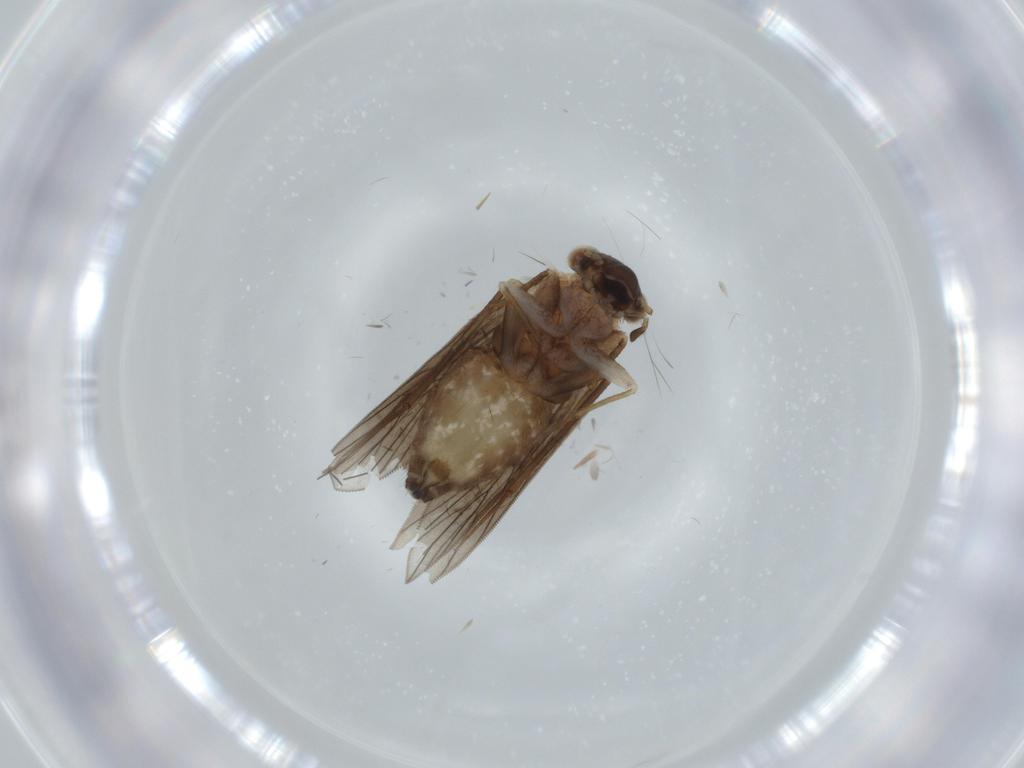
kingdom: Animalia
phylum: Arthropoda
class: Insecta
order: Psocodea
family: Lepidopsocidae
